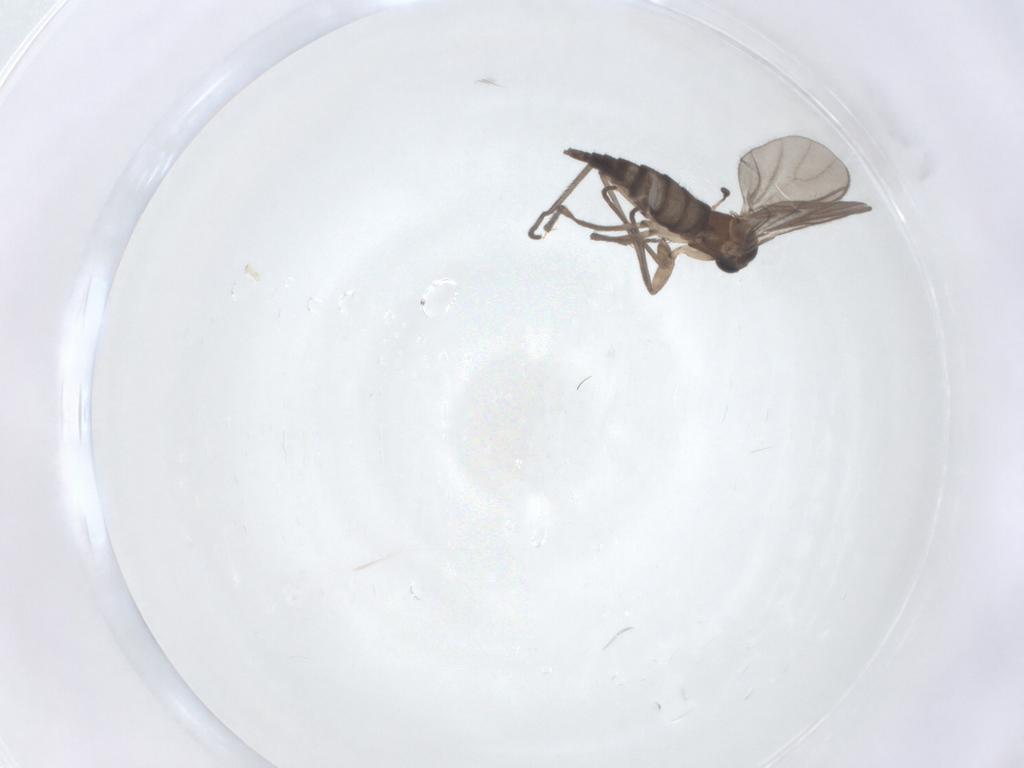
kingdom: Animalia
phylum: Arthropoda
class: Insecta
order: Diptera
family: Sciaridae
